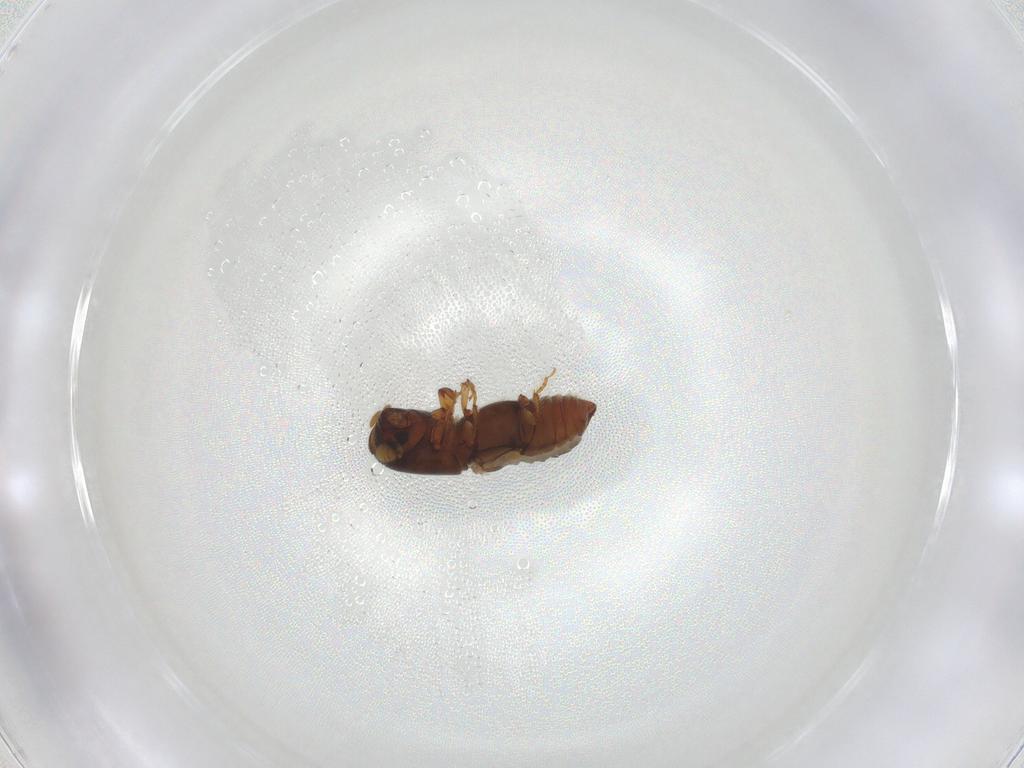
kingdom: Animalia
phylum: Arthropoda
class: Insecta
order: Coleoptera
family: Curculionidae
